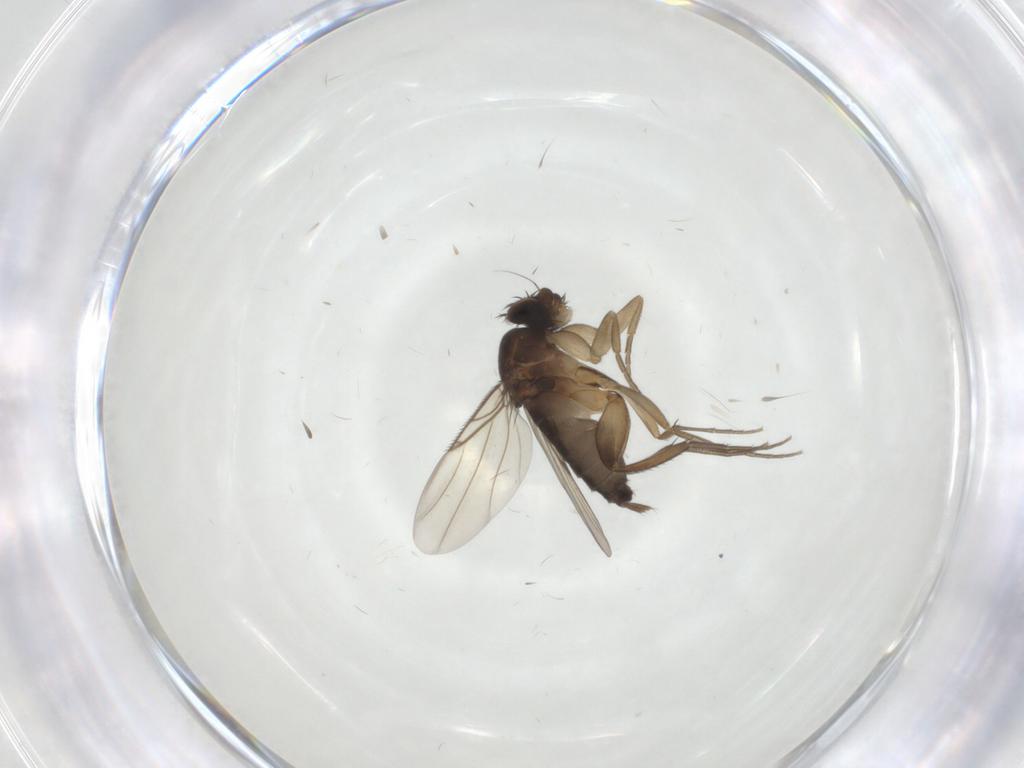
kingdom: Animalia
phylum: Arthropoda
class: Insecta
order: Diptera
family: Phoridae
